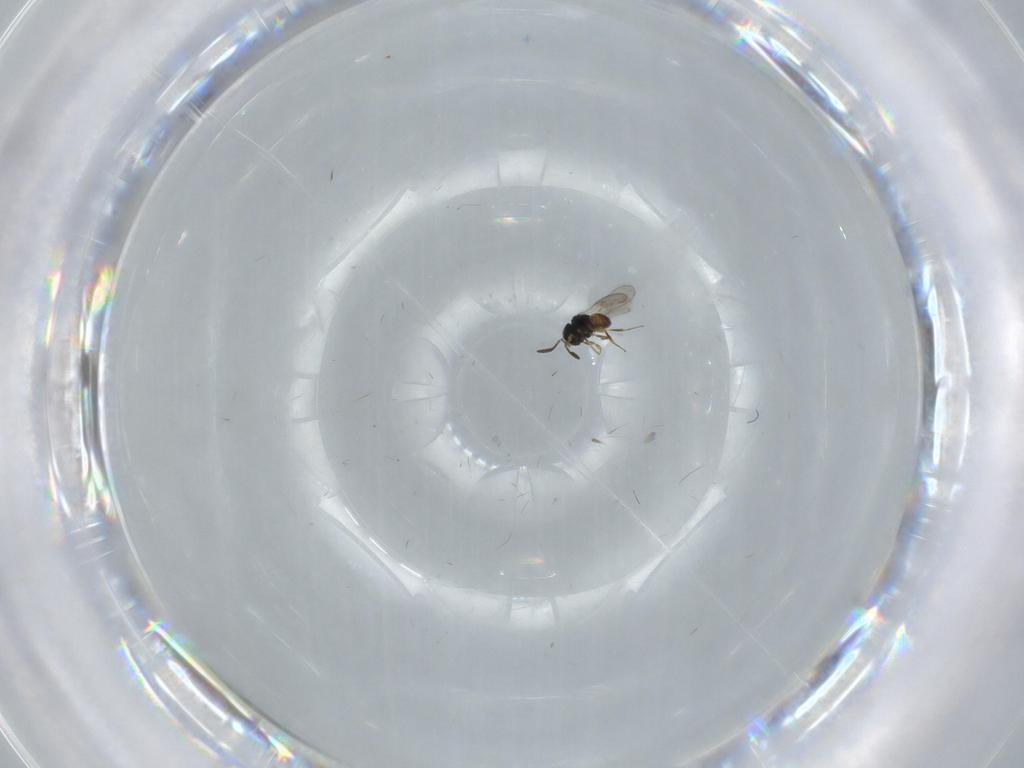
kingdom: Animalia
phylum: Arthropoda
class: Insecta
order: Hymenoptera
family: Scelionidae
